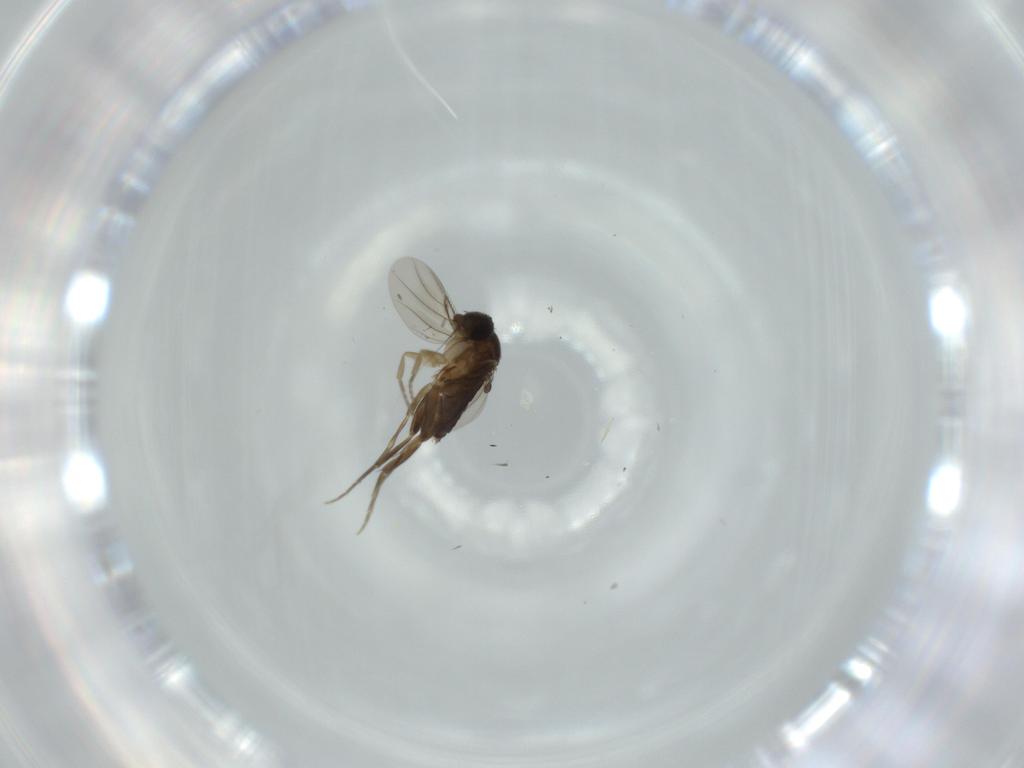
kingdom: Animalia
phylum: Arthropoda
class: Insecta
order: Diptera
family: Phoridae
